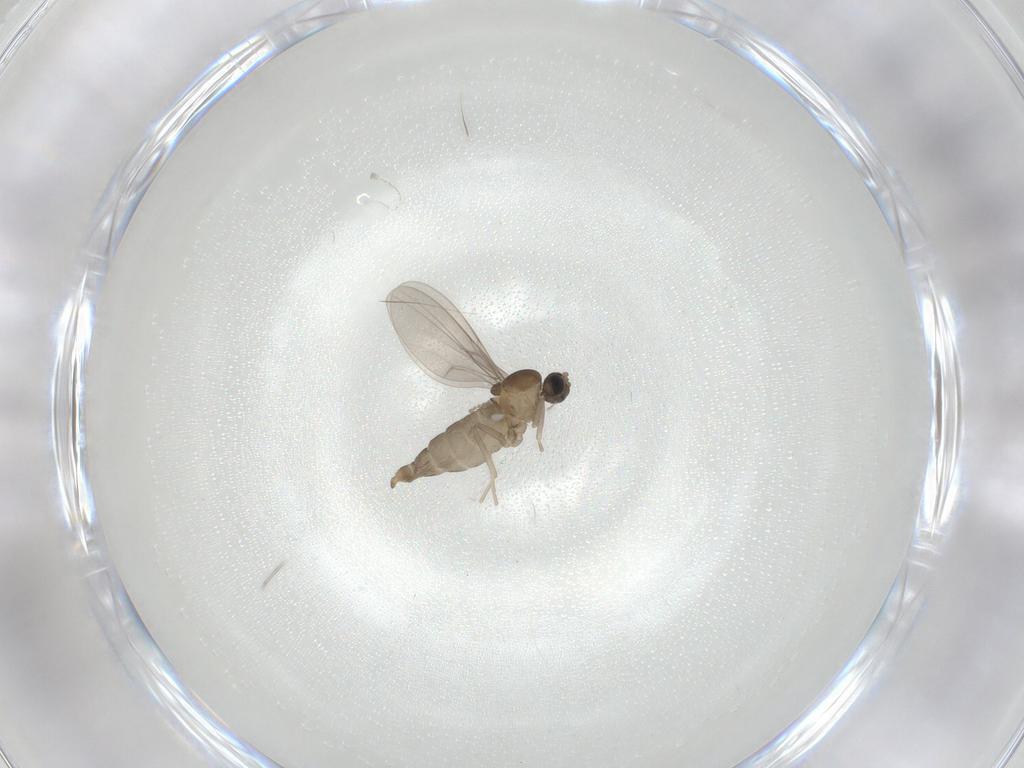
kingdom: Animalia
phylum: Arthropoda
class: Insecta
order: Diptera
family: Cecidomyiidae
